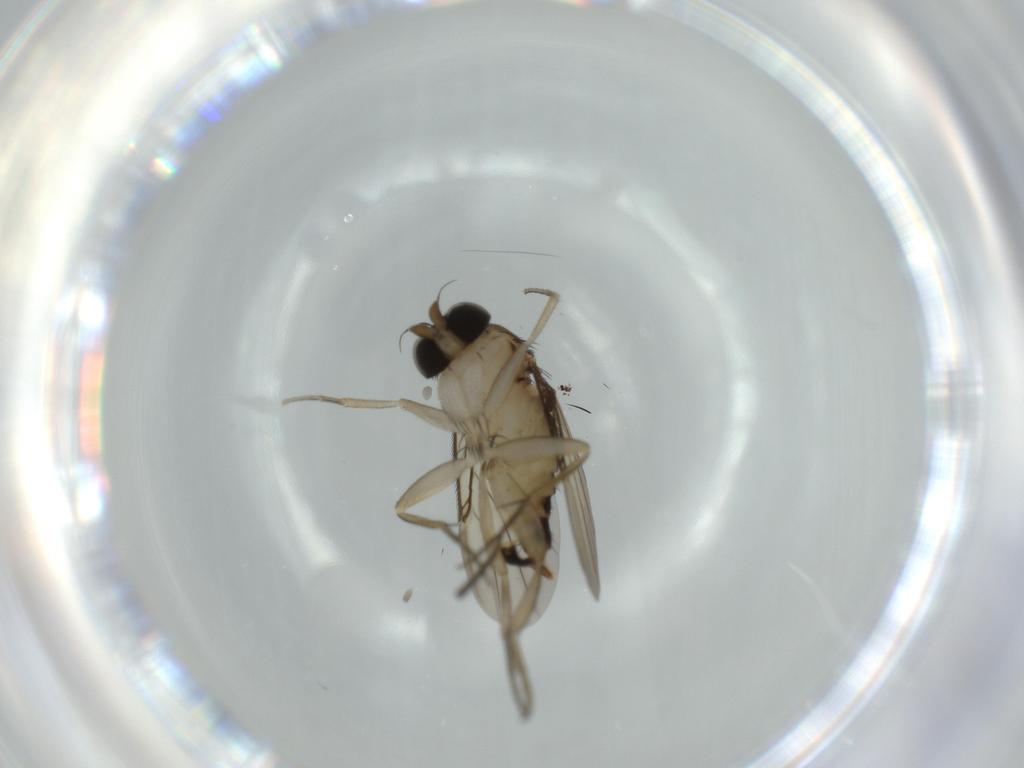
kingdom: Animalia
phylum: Arthropoda
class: Insecta
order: Diptera
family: Phoridae
